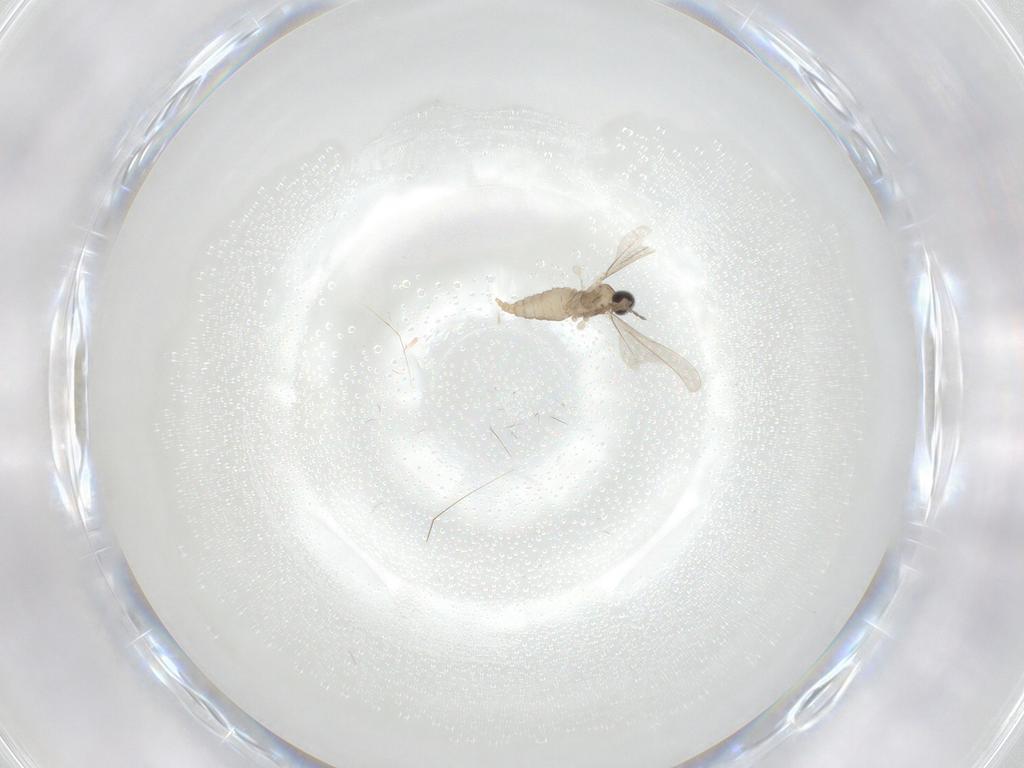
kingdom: Animalia
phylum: Arthropoda
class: Insecta
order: Diptera
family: Cecidomyiidae
